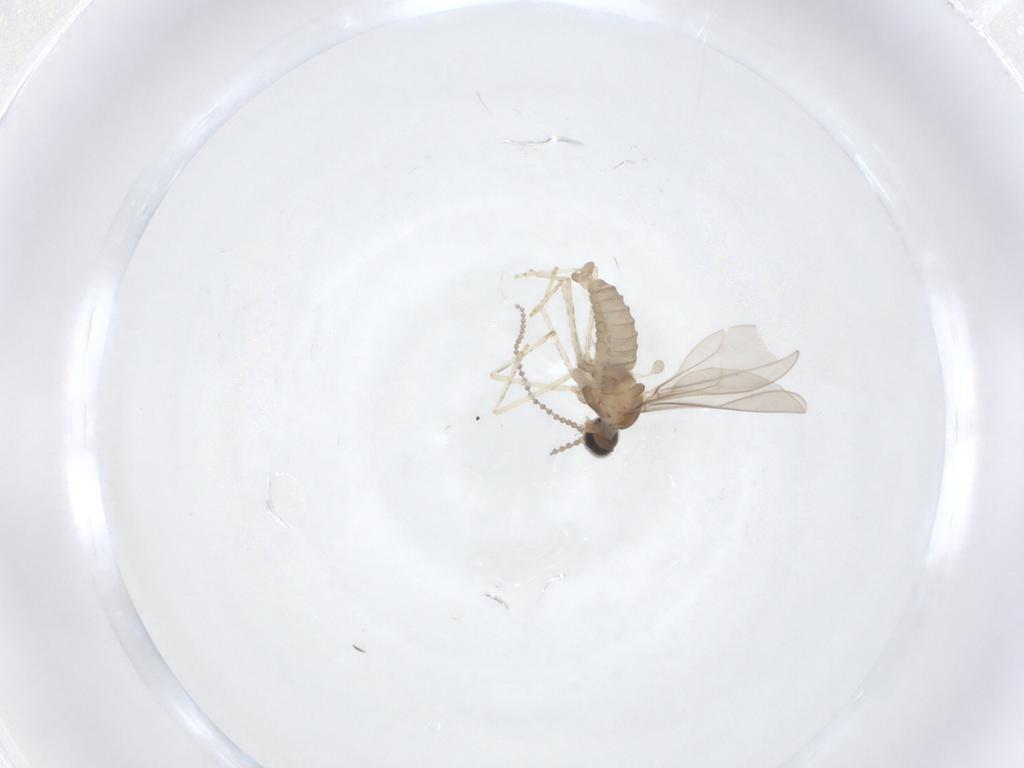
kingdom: Animalia
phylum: Arthropoda
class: Insecta
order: Diptera
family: Cecidomyiidae
